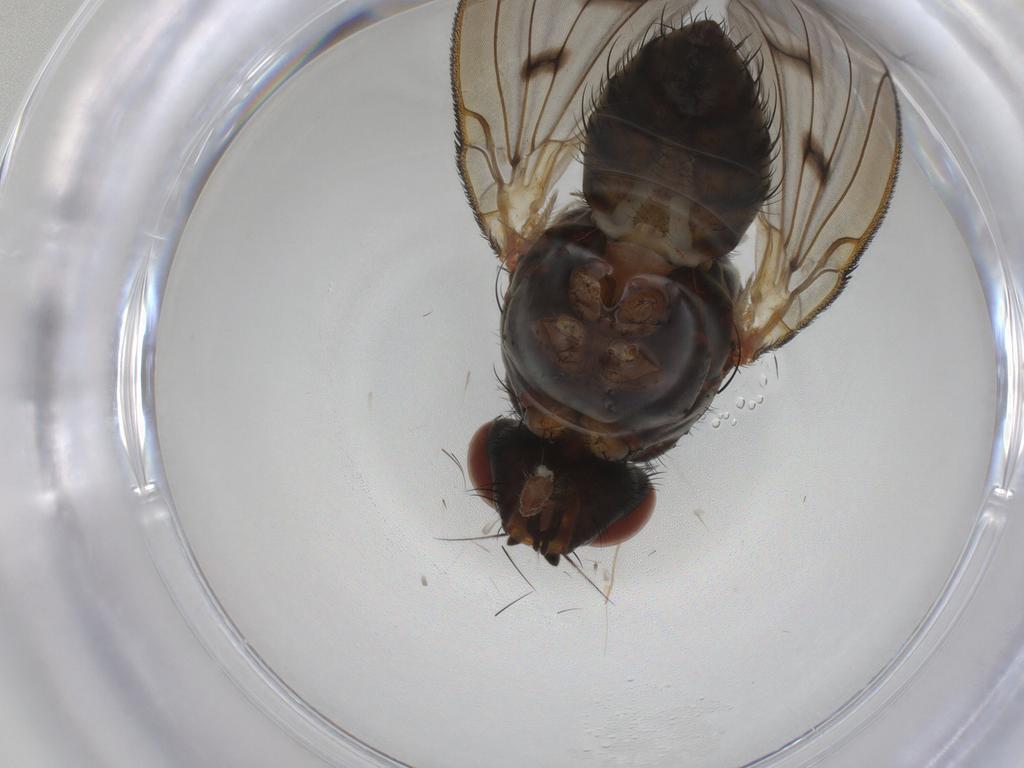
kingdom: Animalia
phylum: Arthropoda
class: Insecta
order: Diptera
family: Anthomyiidae
